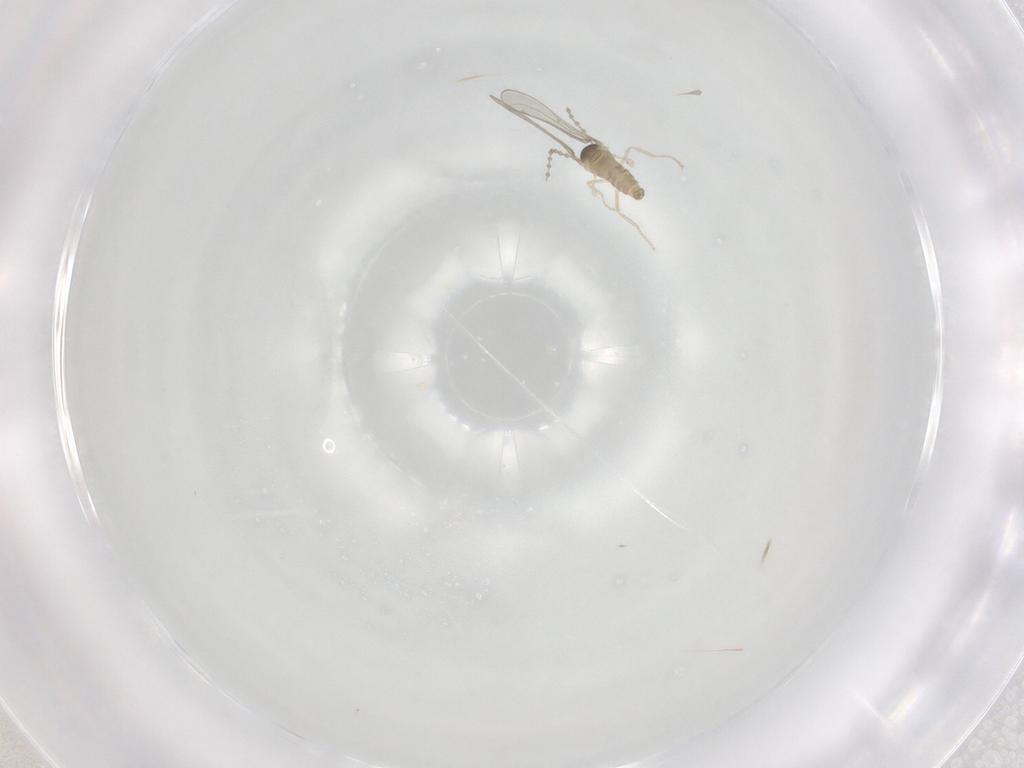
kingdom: Animalia
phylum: Arthropoda
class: Insecta
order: Diptera
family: Cecidomyiidae
